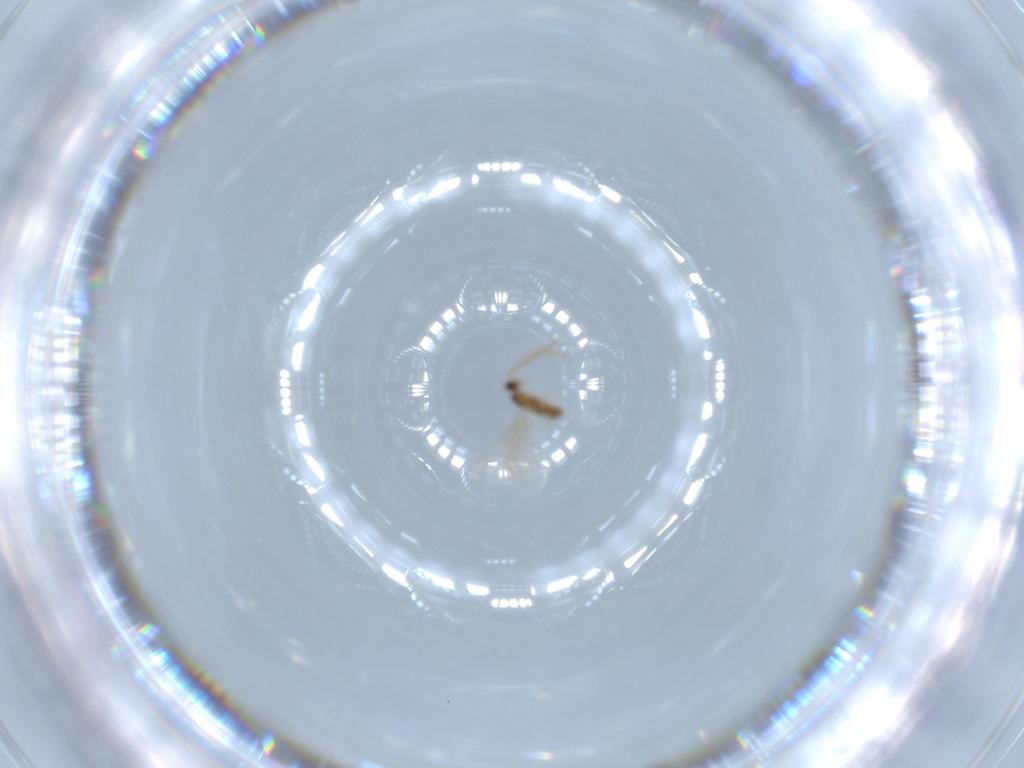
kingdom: Animalia
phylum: Arthropoda
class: Insecta
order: Hymenoptera
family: Mymaridae
